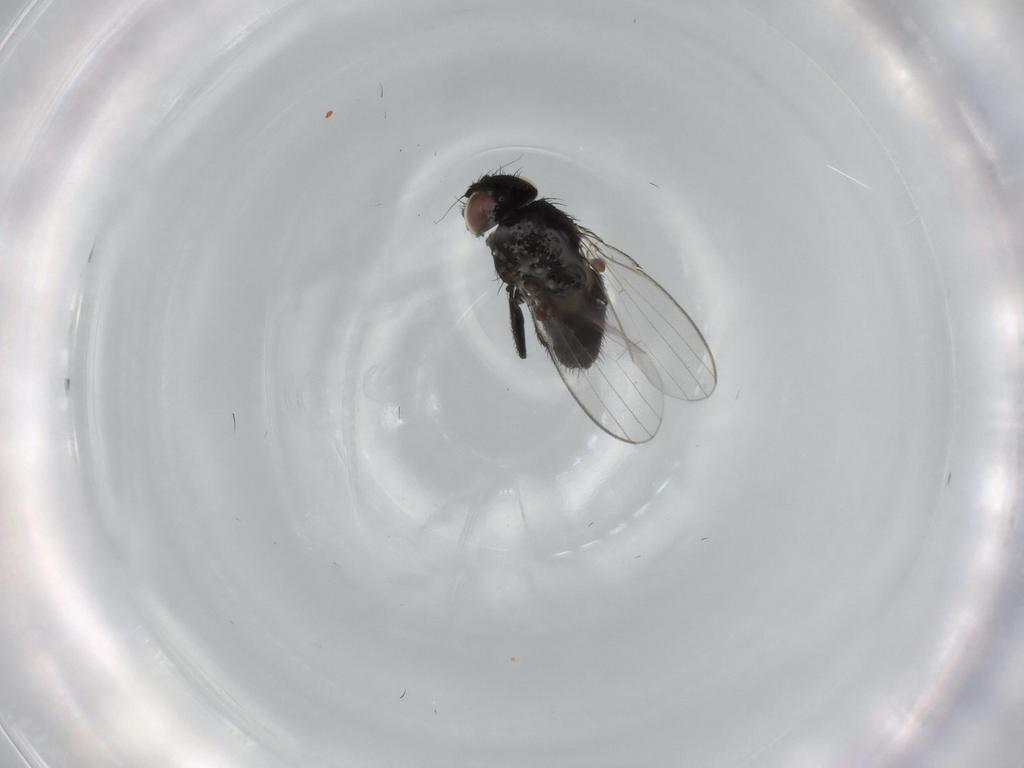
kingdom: Animalia
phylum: Arthropoda
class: Insecta
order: Diptera
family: Milichiidae
